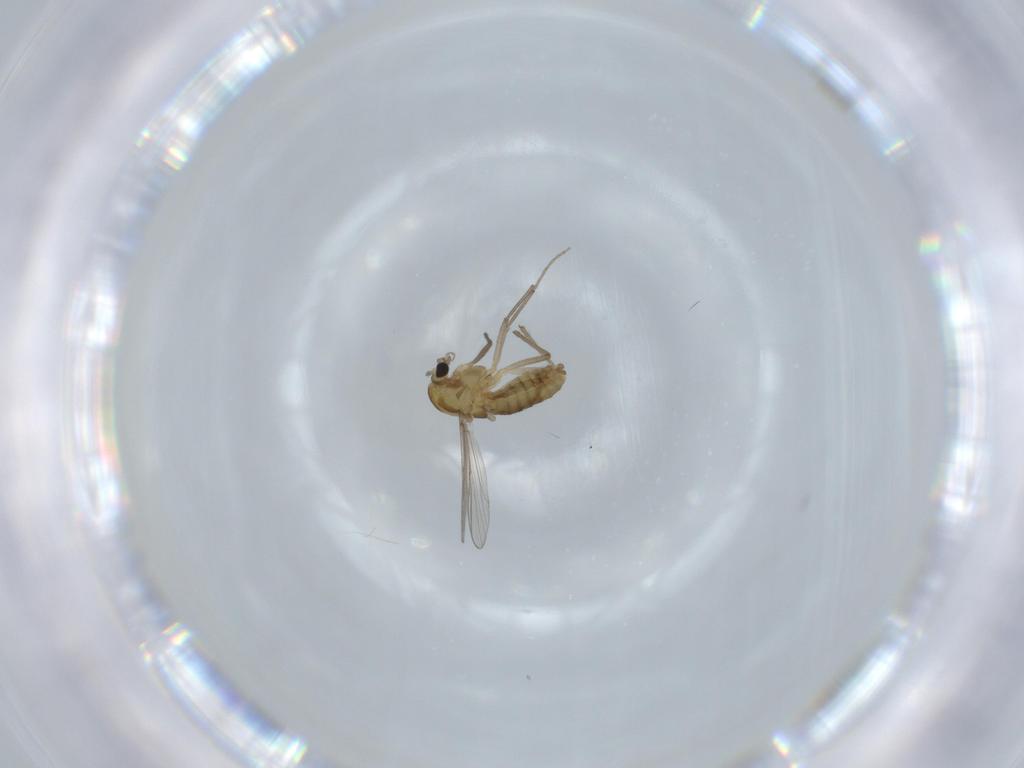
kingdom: Animalia
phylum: Arthropoda
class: Insecta
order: Diptera
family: Chironomidae
